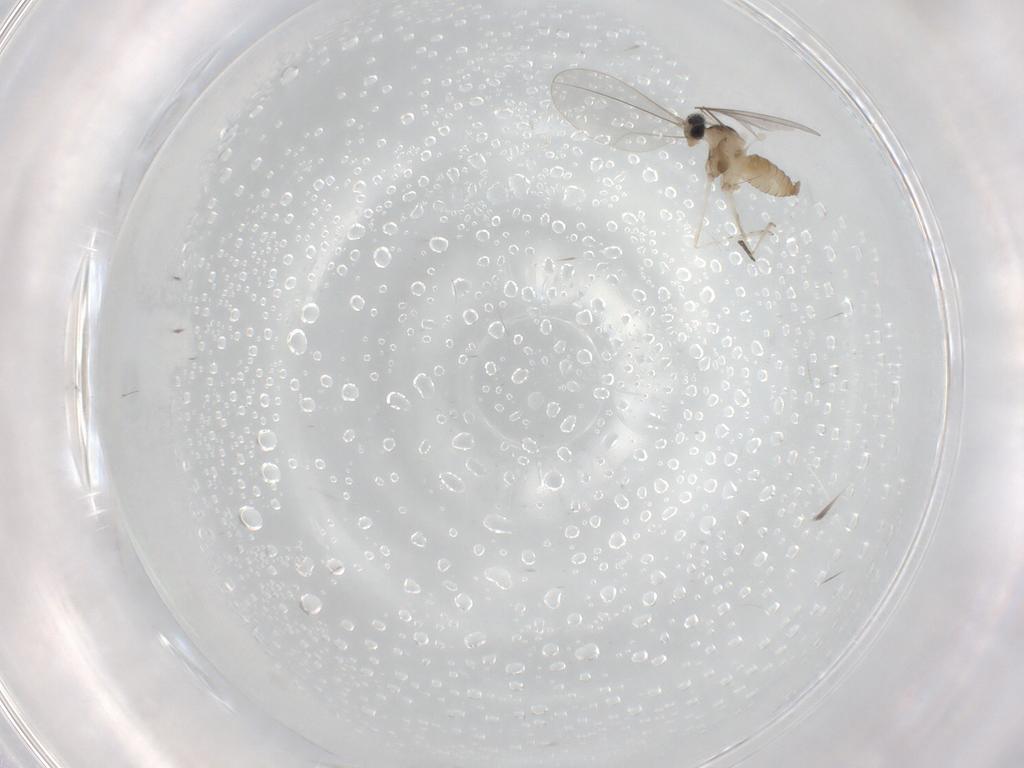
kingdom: Animalia
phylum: Arthropoda
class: Insecta
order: Diptera
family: Cecidomyiidae
